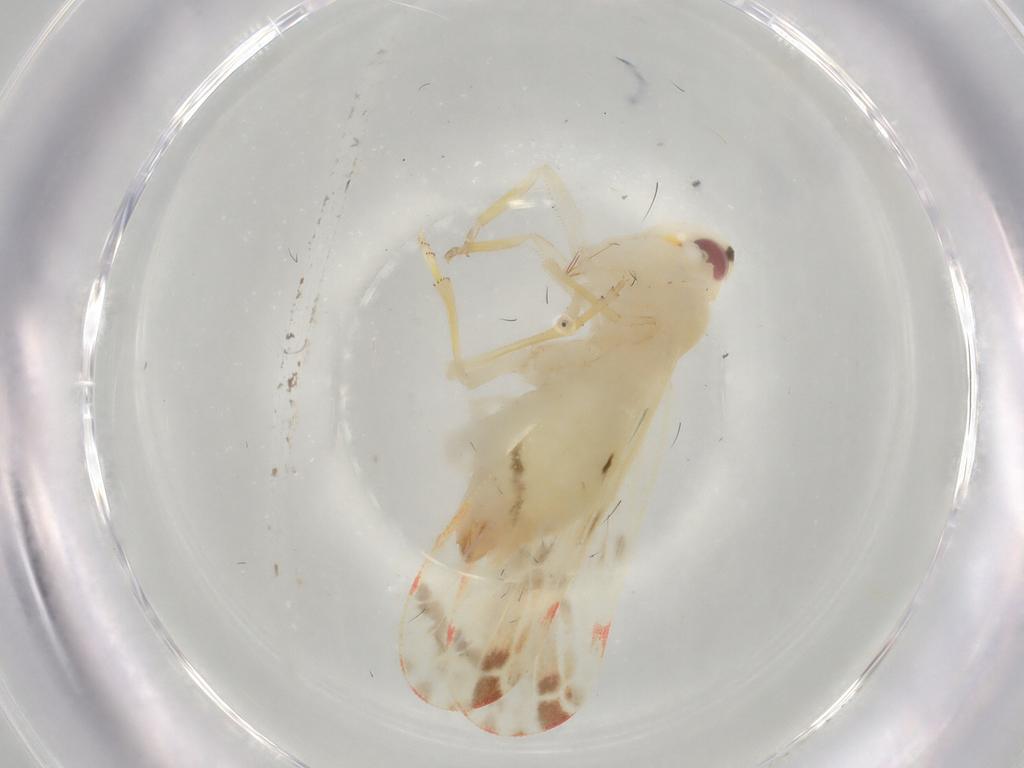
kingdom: Animalia
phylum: Arthropoda
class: Insecta
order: Hemiptera
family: Derbidae
